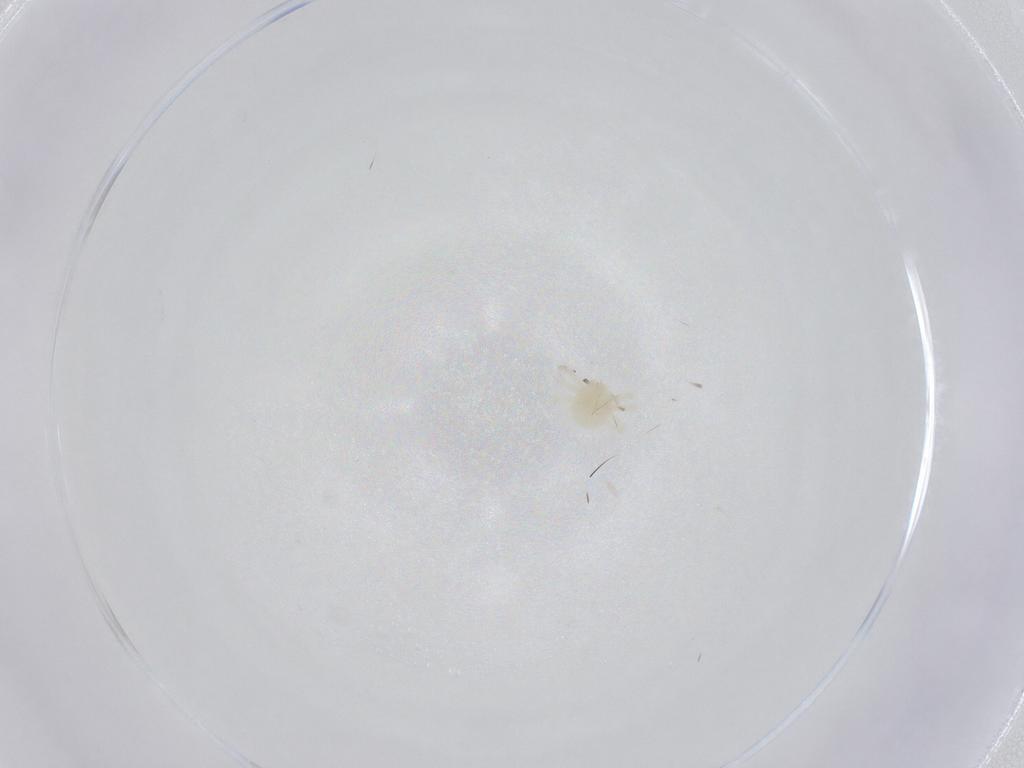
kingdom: Animalia
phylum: Arthropoda
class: Arachnida
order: Trombidiformes
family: Anystidae
